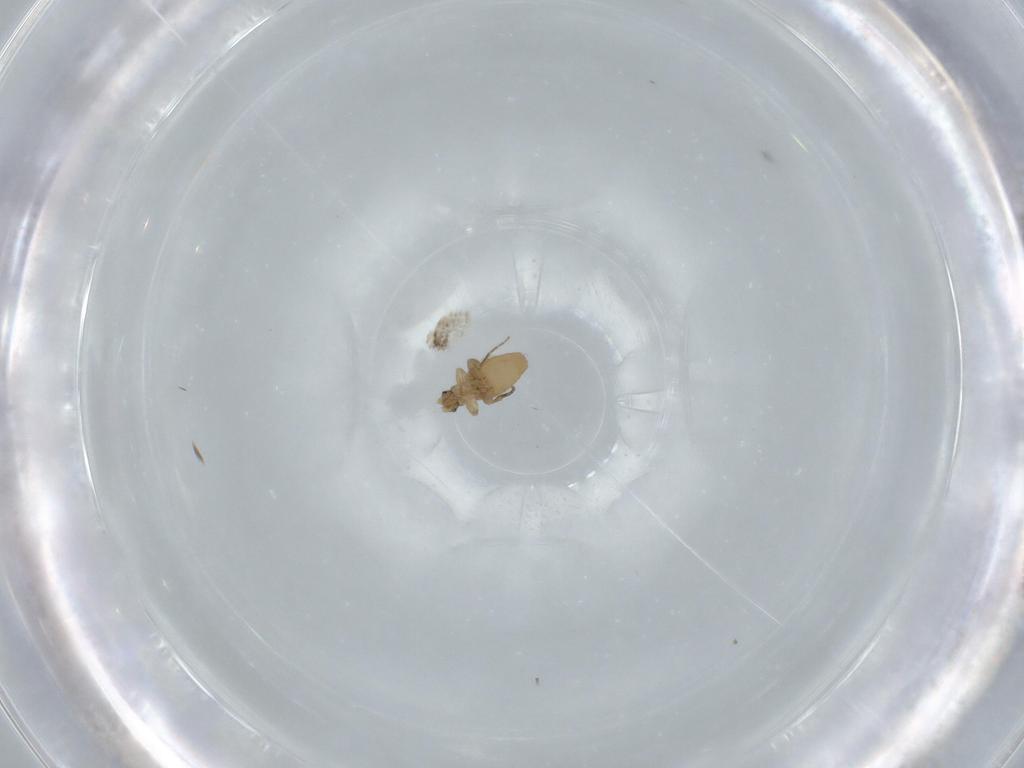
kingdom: Animalia
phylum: Arthropoda
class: Insecta
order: Diptera
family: Phoridae
